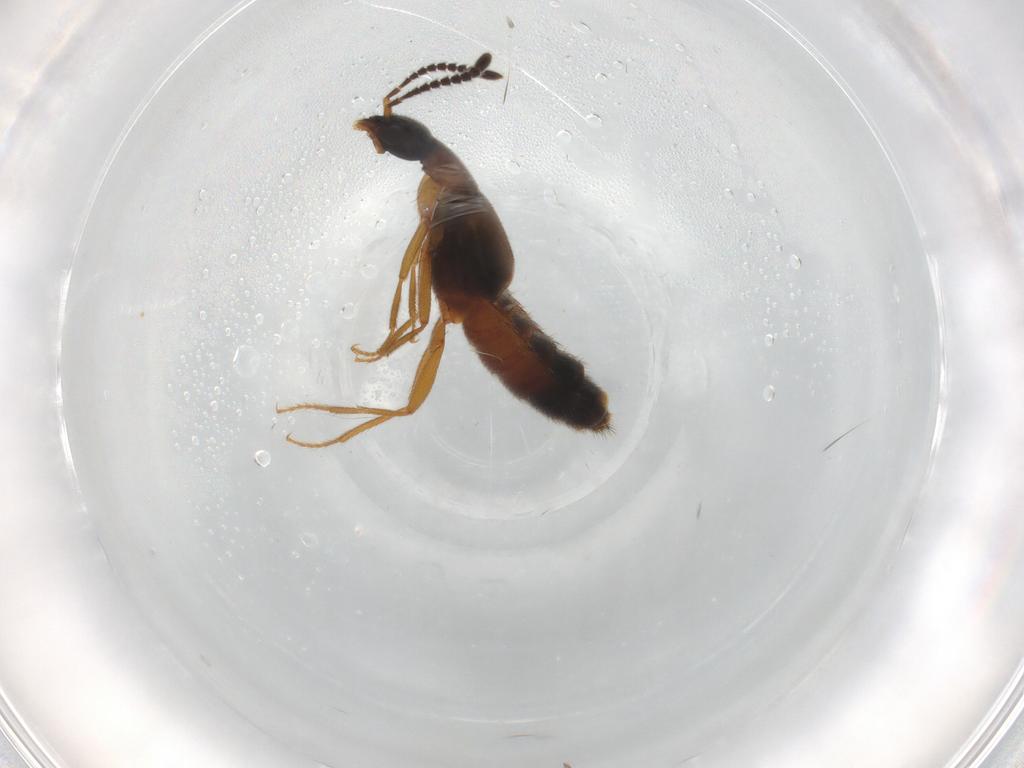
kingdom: Animalia
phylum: Arthropoda
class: Insecta
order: Coleoptera
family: Staphylinidae
